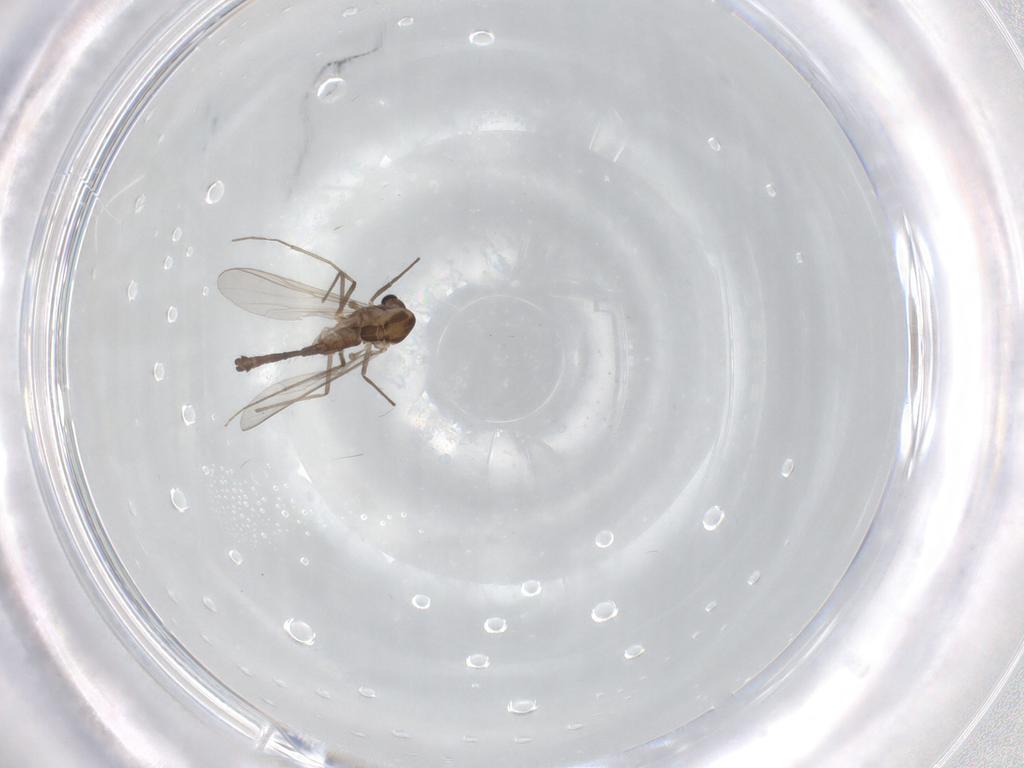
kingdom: Animalia
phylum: Arthropoda
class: Insecta
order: Diptera
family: Chironomidae
